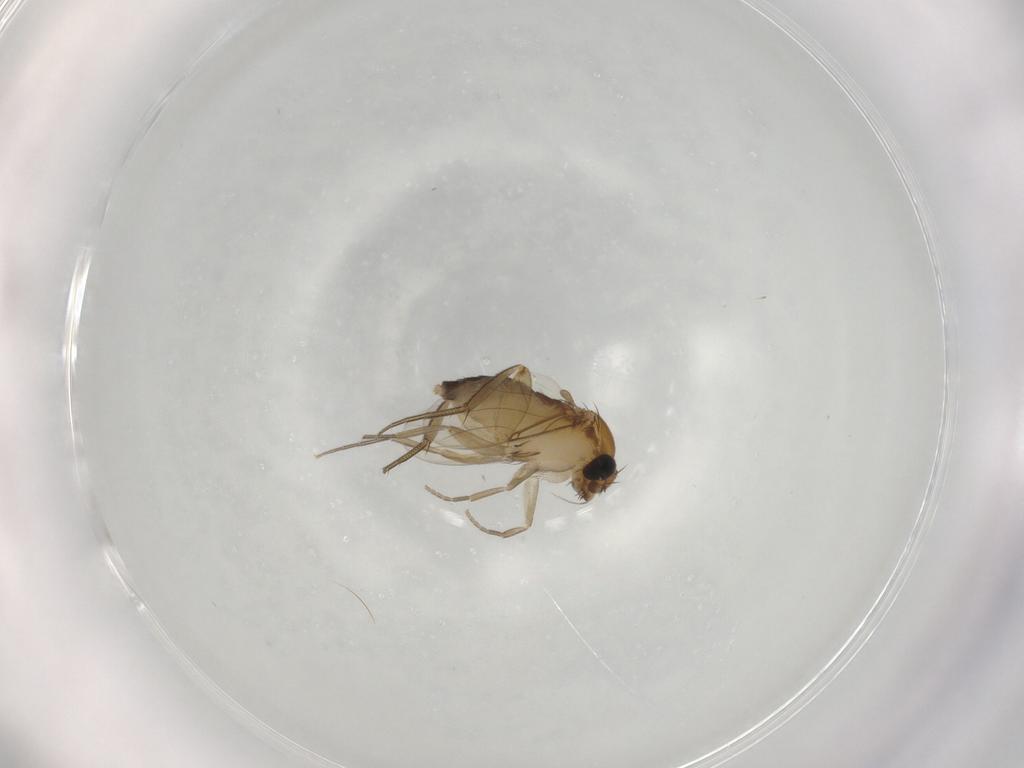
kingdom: Animalia
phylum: Arthropoda
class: Insecta
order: Diptera
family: Phoridae
